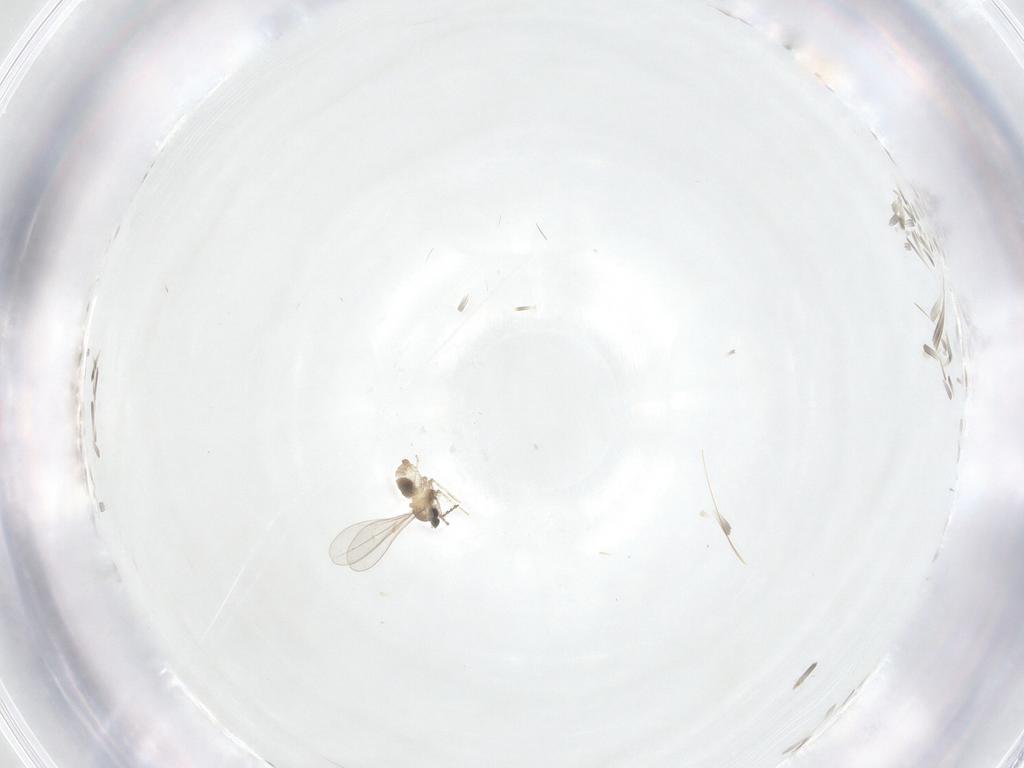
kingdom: Animalia
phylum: Arthropoda
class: Insecta
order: Diptera
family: Cecidomyiidae
